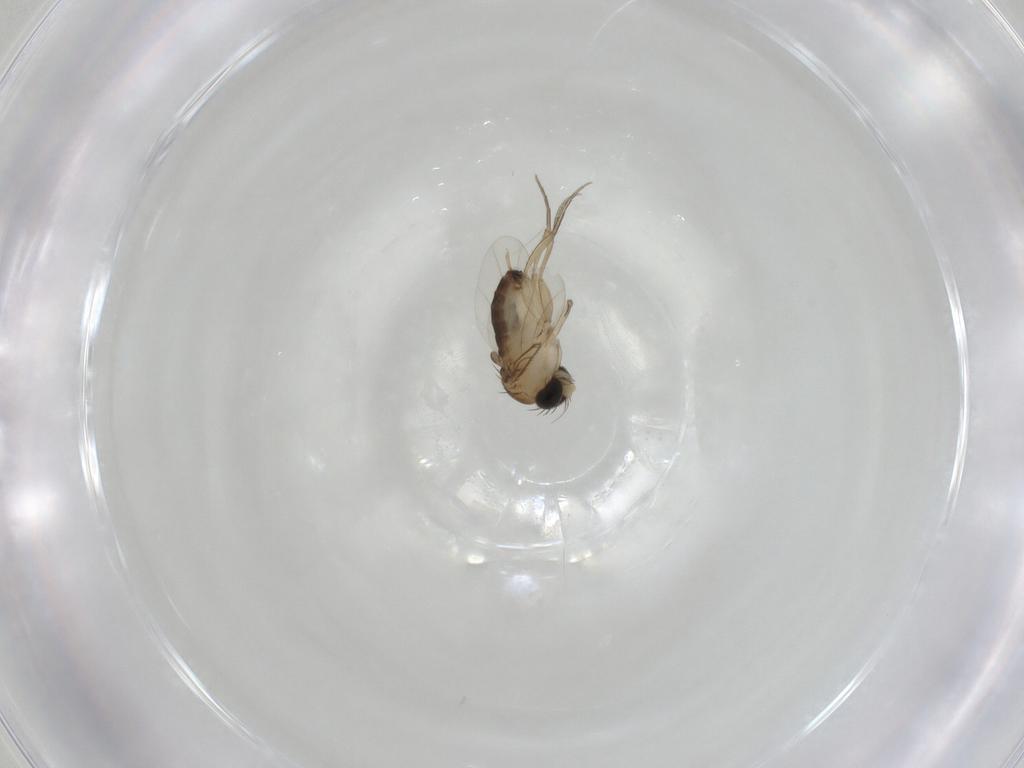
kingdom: Animalia
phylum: Arthropoda
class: Insecta
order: Diptera
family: Phoridae
